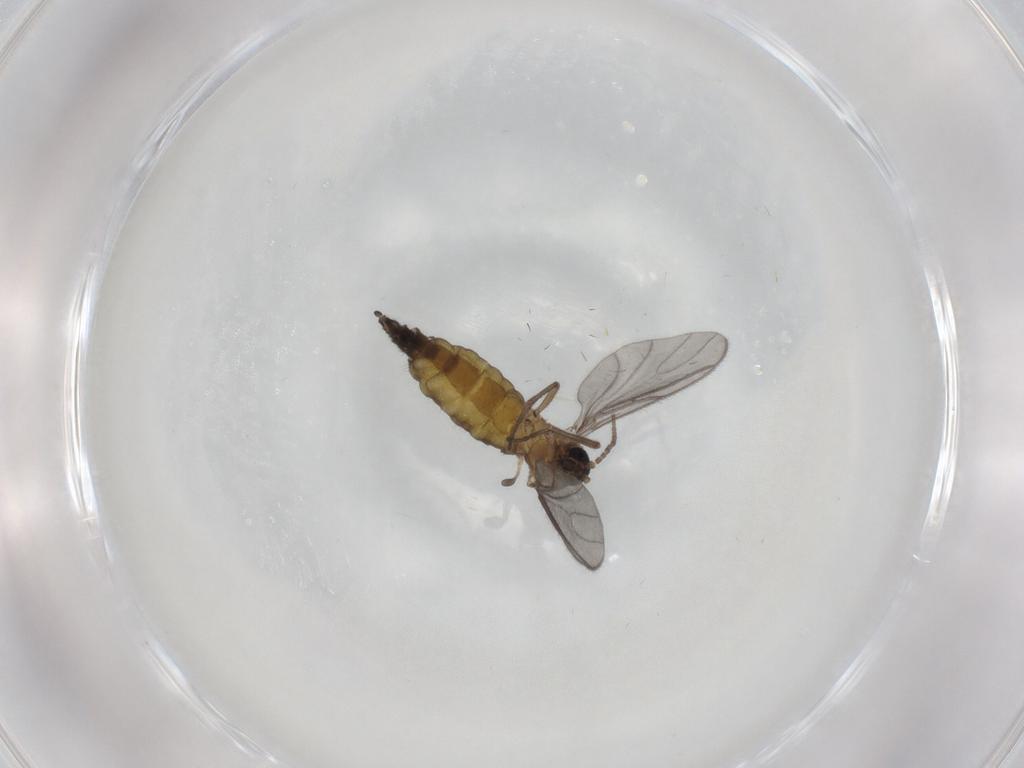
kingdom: Animalia
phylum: Arthropoda
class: Insecta
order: Diptera
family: Sciaridae
